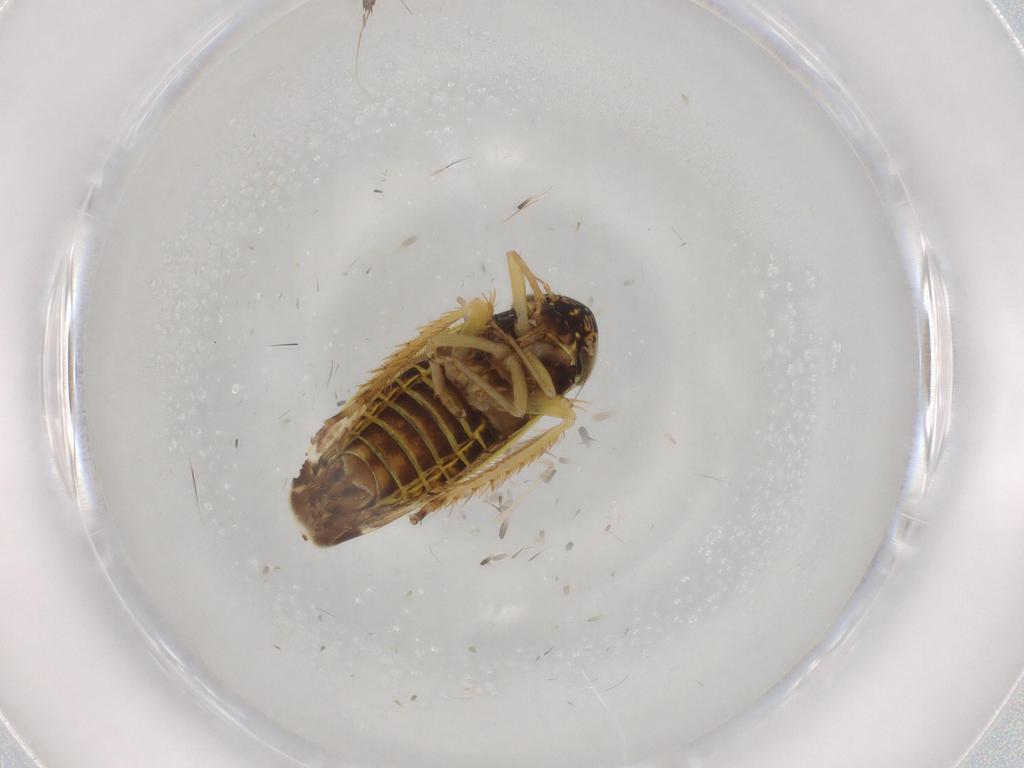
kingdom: Animalia
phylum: Arthropoda
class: Insecta
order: Hemiptera
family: Cicadellidae
